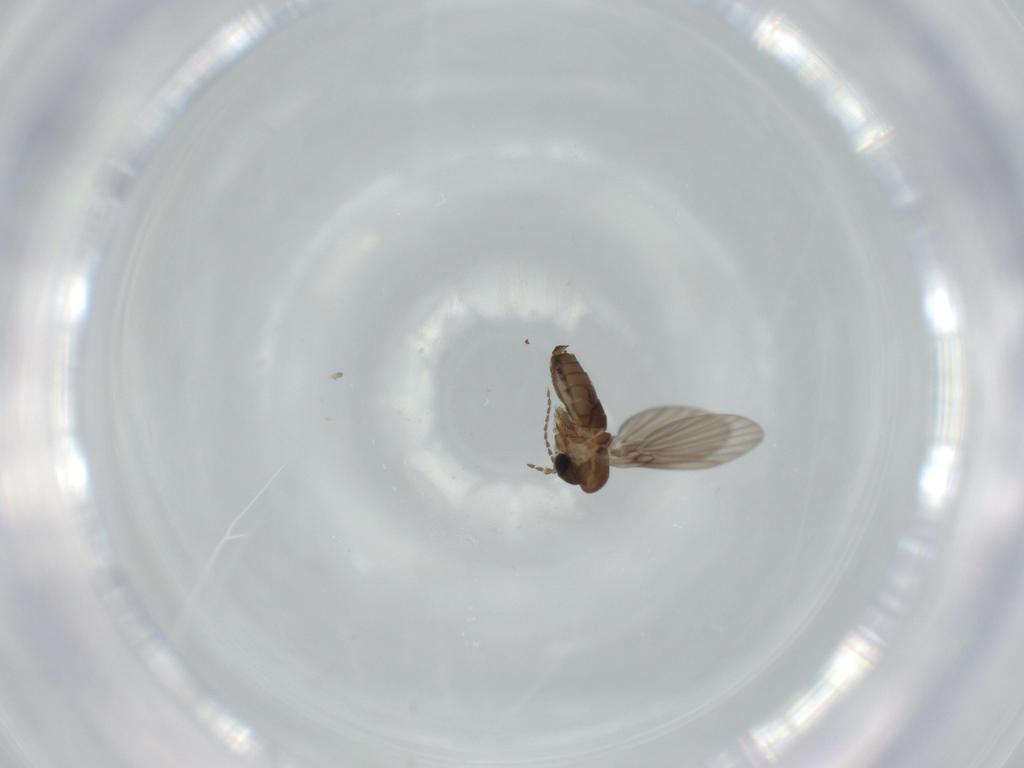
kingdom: Animalia
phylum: Arthropoda
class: Insecta
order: Diptera
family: Psychodidae
